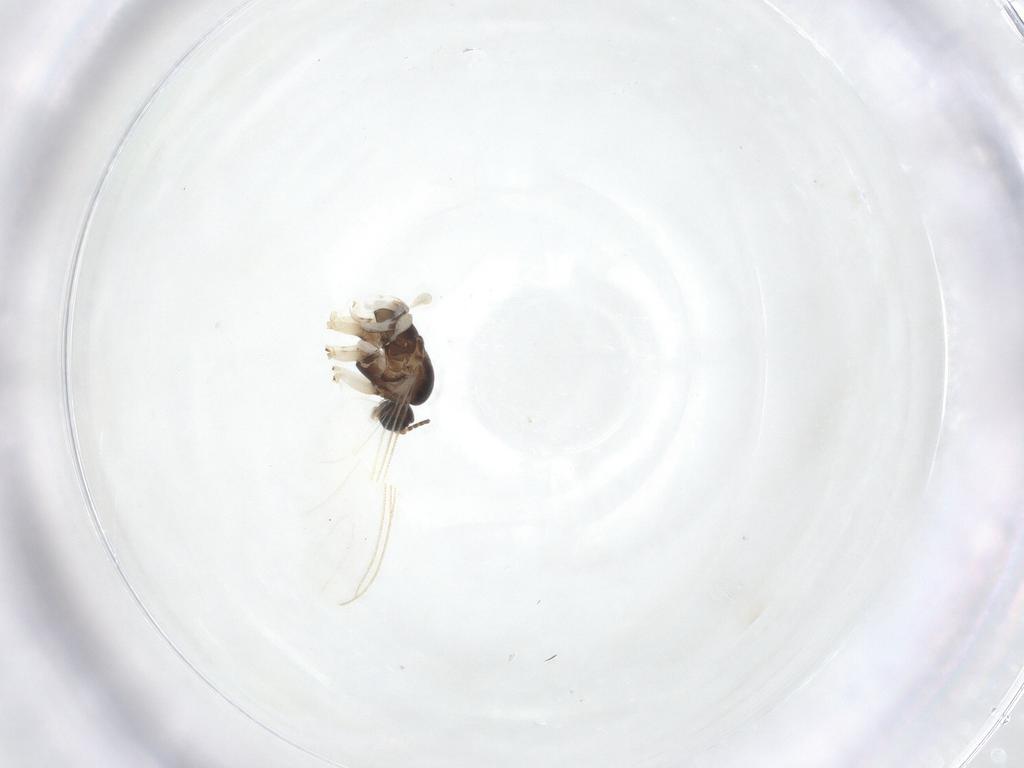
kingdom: Animalia
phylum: Arthropoda
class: Insecta
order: Diptera
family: Sciaridae
